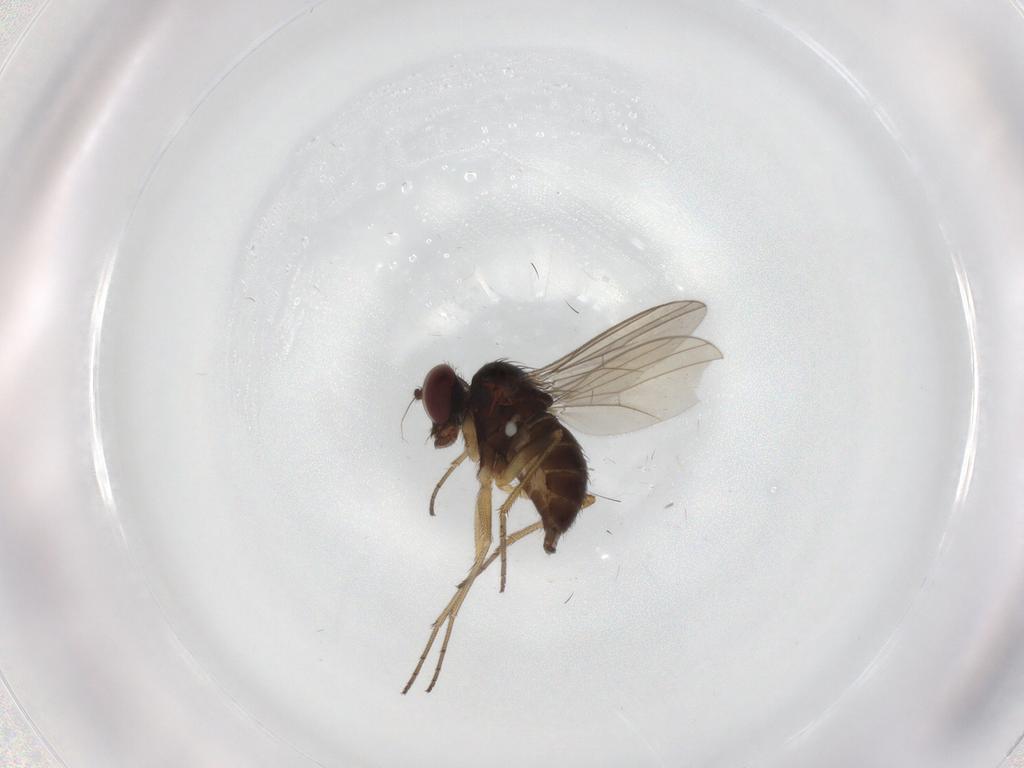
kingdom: Animalia
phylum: Arthropoda
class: Insecta
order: Diptera
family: Dolichopodidae
